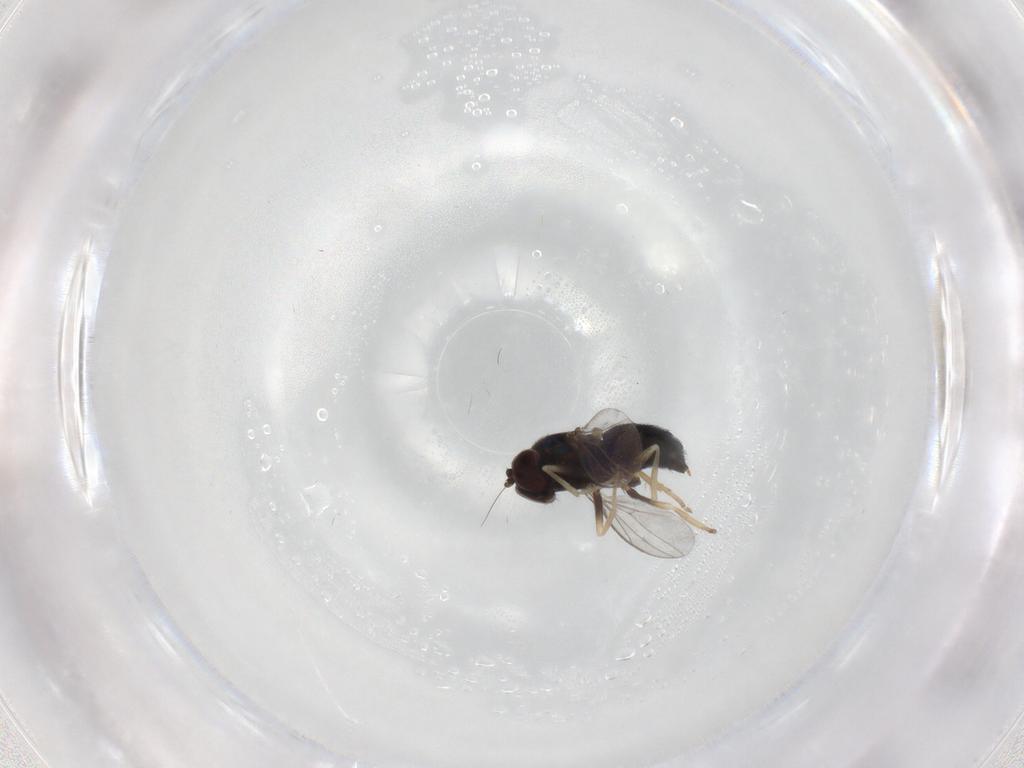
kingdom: Animalia
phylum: Arthropoda
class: Insecta
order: Diptera
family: Dolichopodidae
